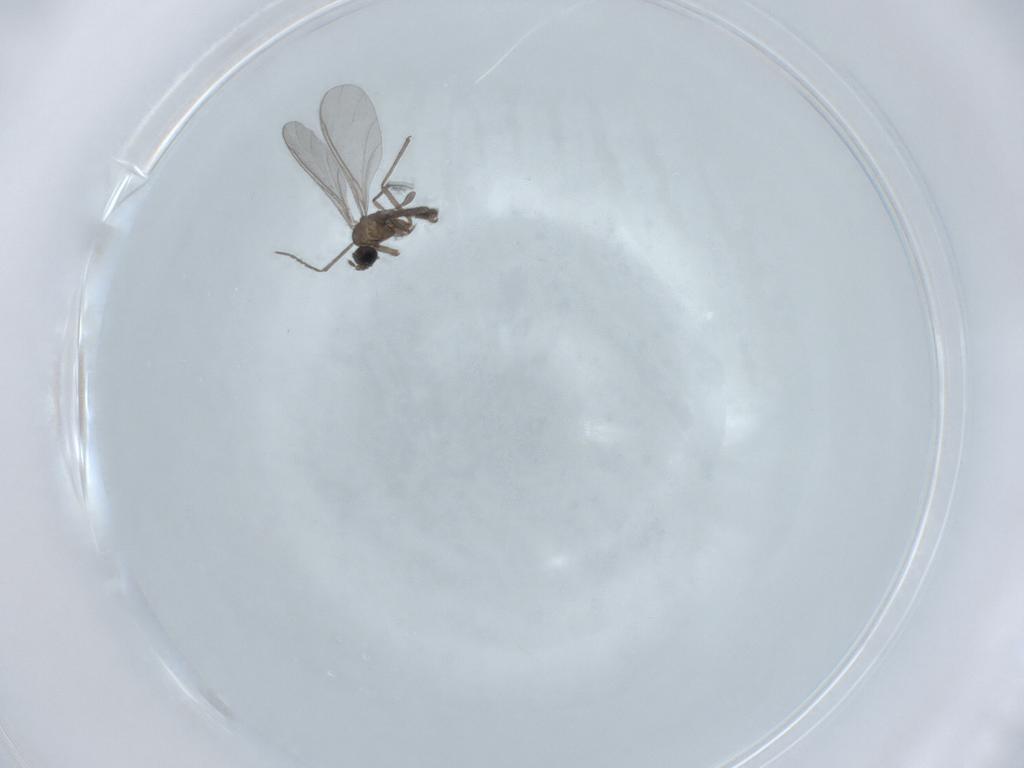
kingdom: Animalia
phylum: Arthropoda
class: Insecta
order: Diptera
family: Sciaridae
